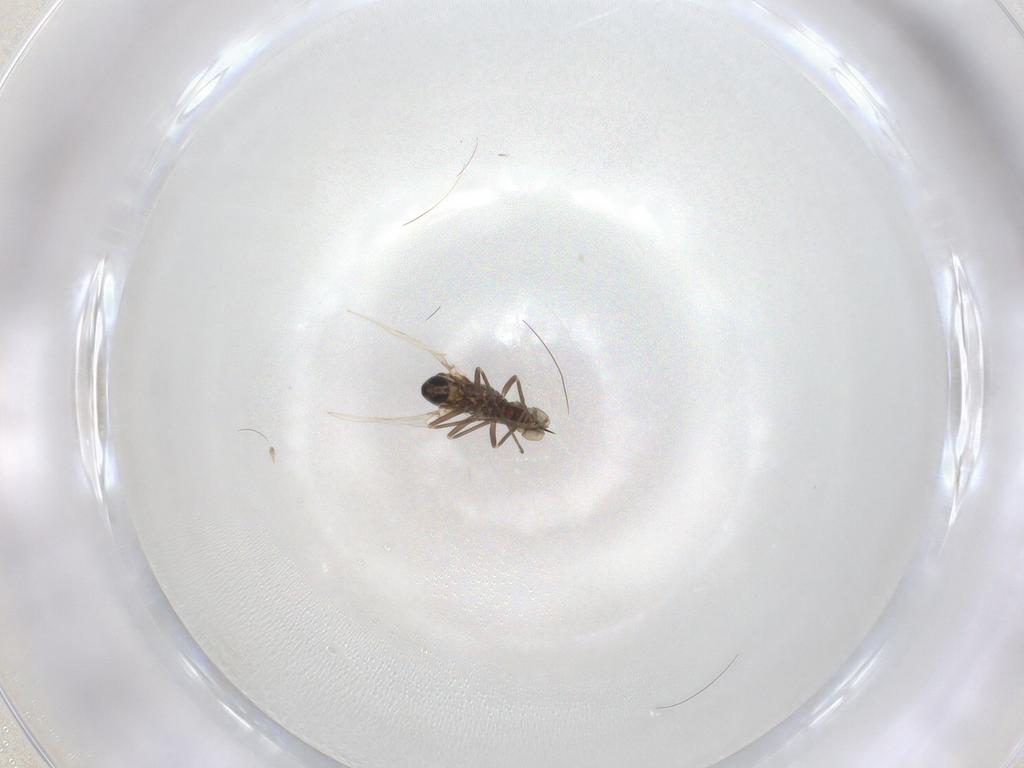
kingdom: Animalia
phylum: Arthropoda
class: Insecta
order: Diptera
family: Cecidomyiidae
